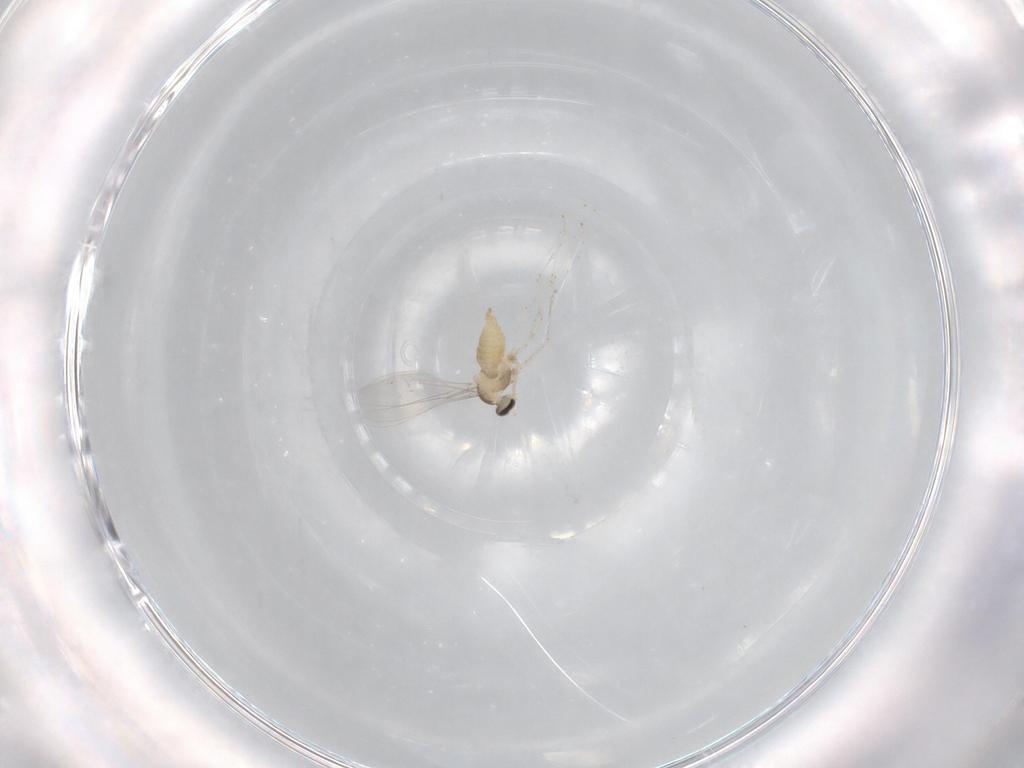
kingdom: Animalia
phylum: Arthropoda
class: Insecta
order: Diptera
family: Cecidomyiidae
